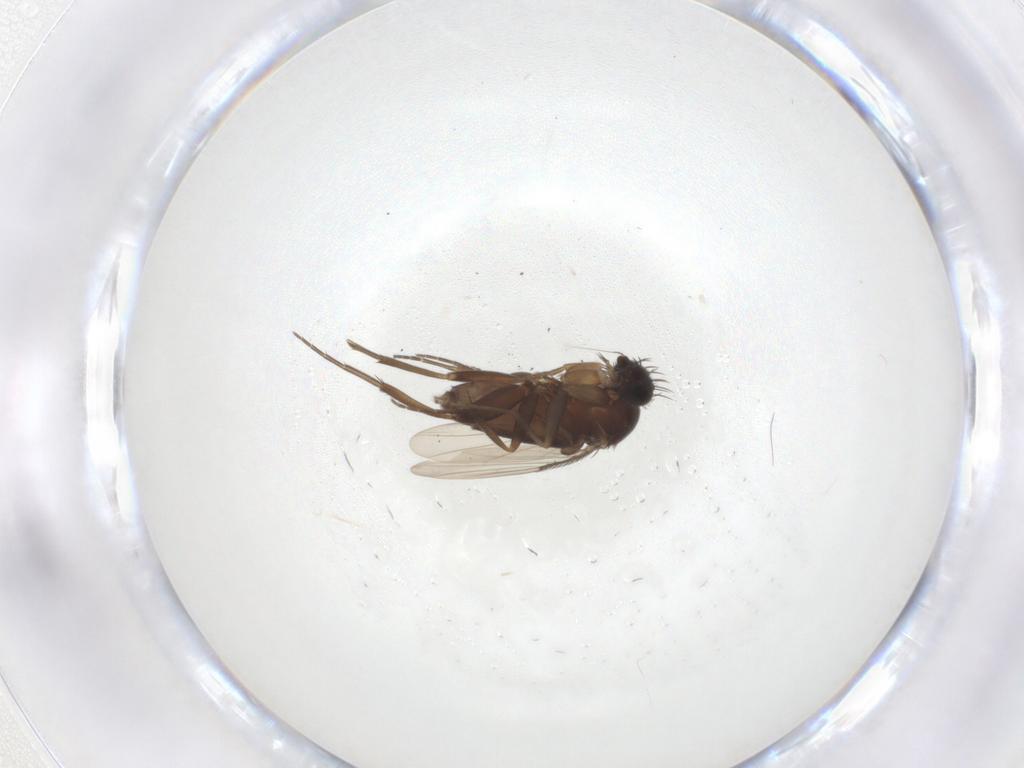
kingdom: Animalia
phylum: Arthropoda
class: Insecta
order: Diptera
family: Phoridae
